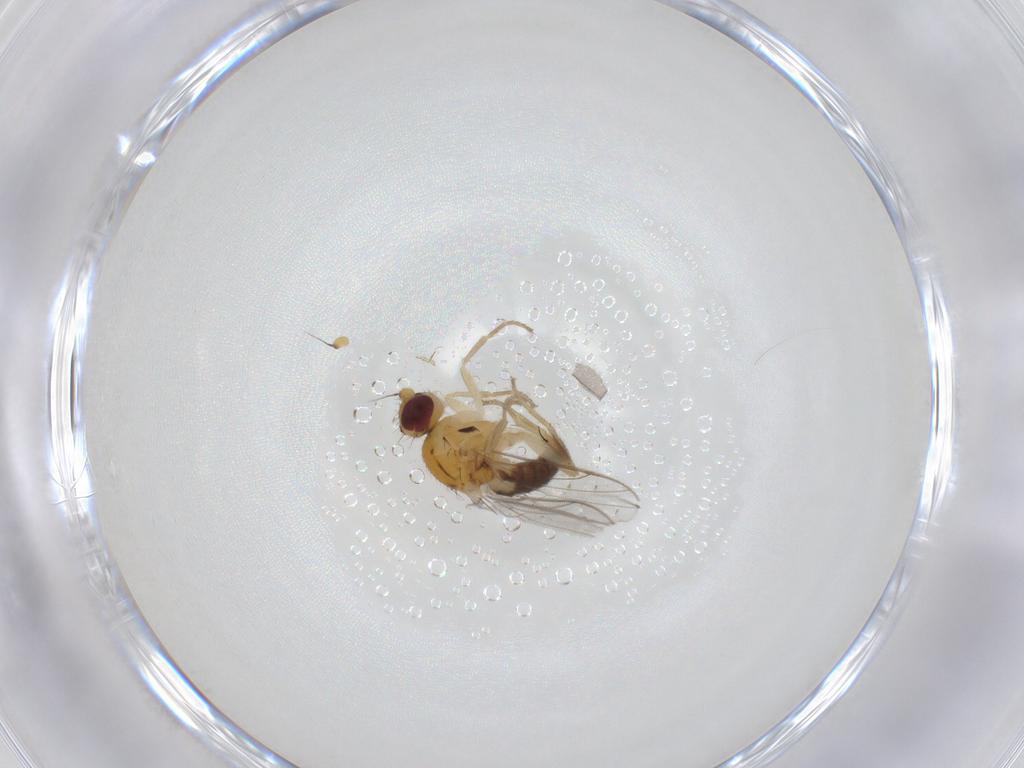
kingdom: Animalia
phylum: Arthropoda
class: Insecta
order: Diptera
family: Chloropidae
